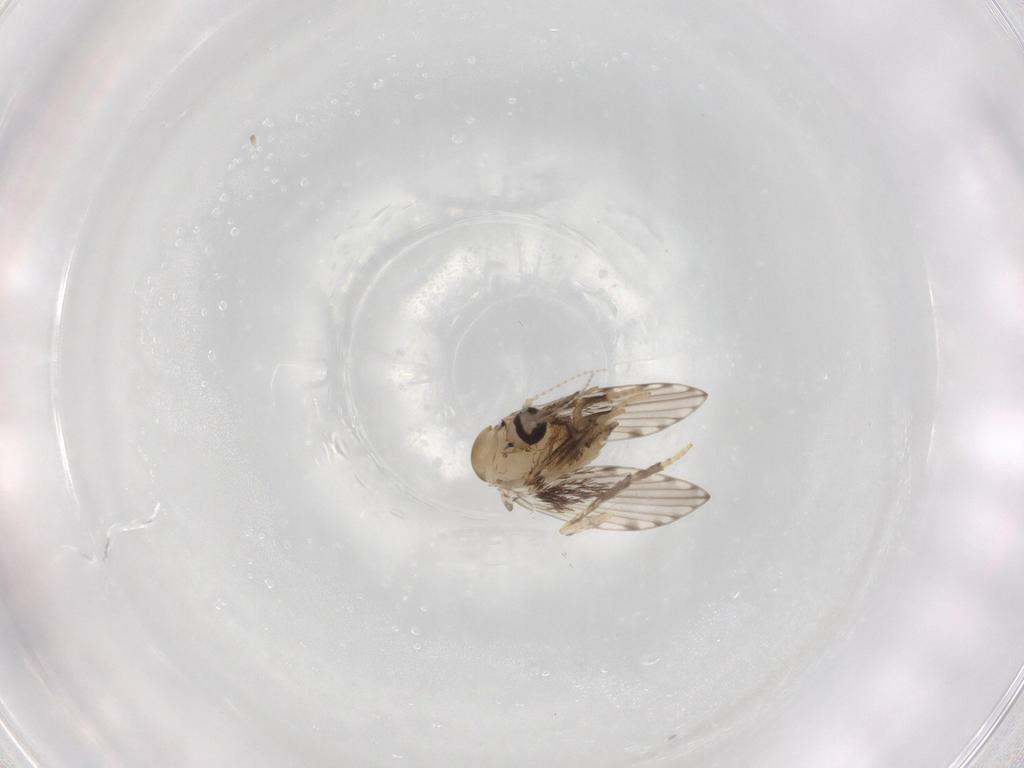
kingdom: Animalia
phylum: Arthropoda
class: Insecta
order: Diptera
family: Psychodidae
